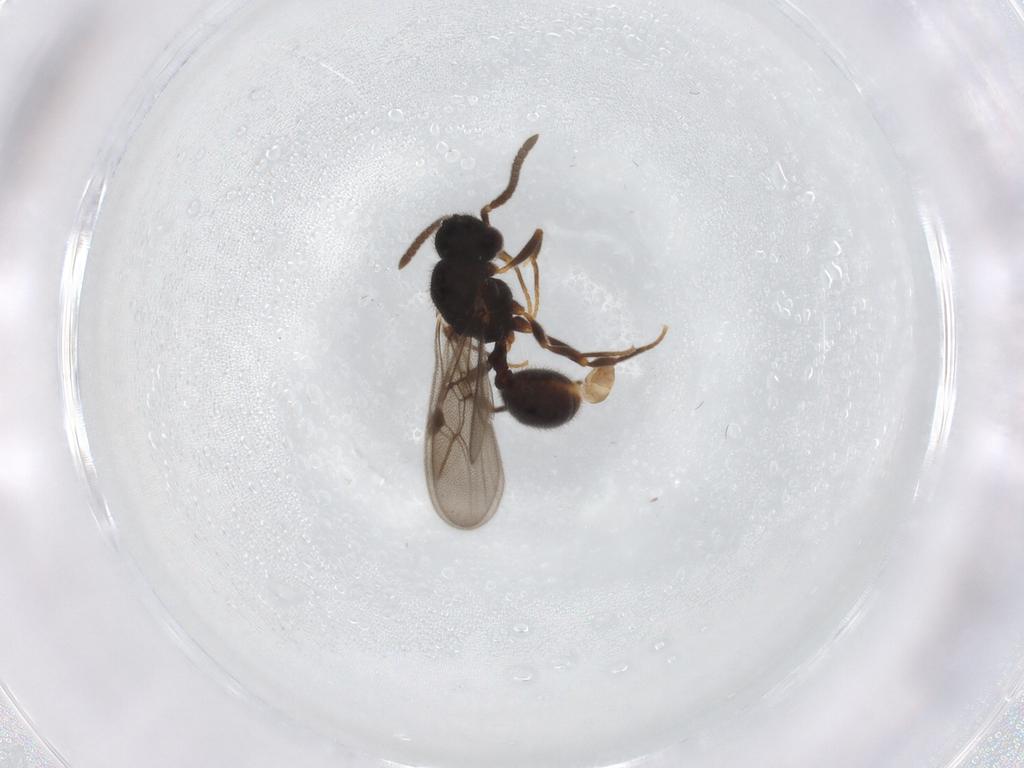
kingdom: Animalia
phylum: Arthropoda
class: Insecta
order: Hymenoptera
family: Formicidae
